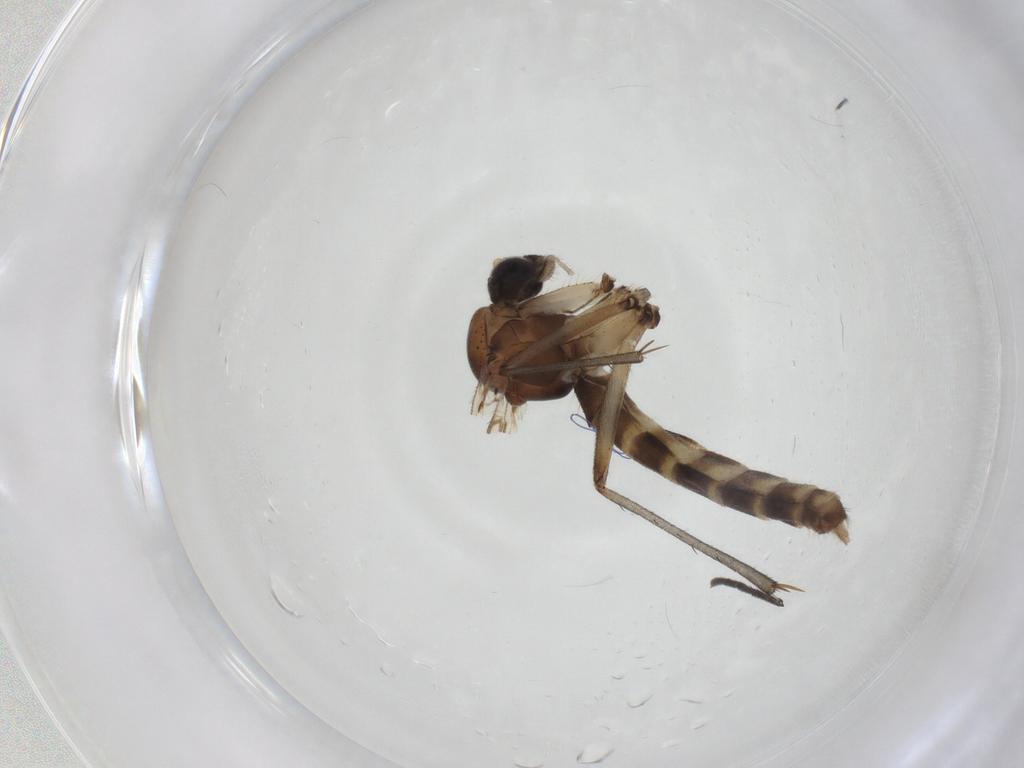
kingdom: Animalia
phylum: Arthropoda
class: Insecta
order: Diptera
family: Mycetophilidae
